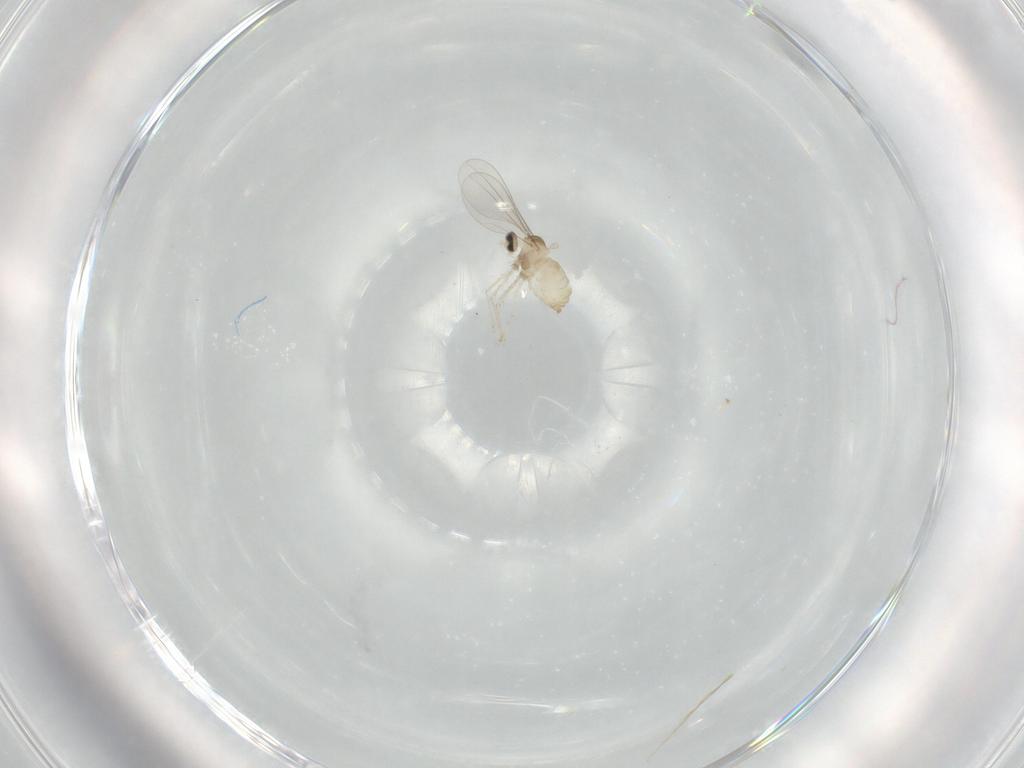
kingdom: Animalia
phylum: Arthropoda
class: Insecta
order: Diptera
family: Cecidomyiidae
